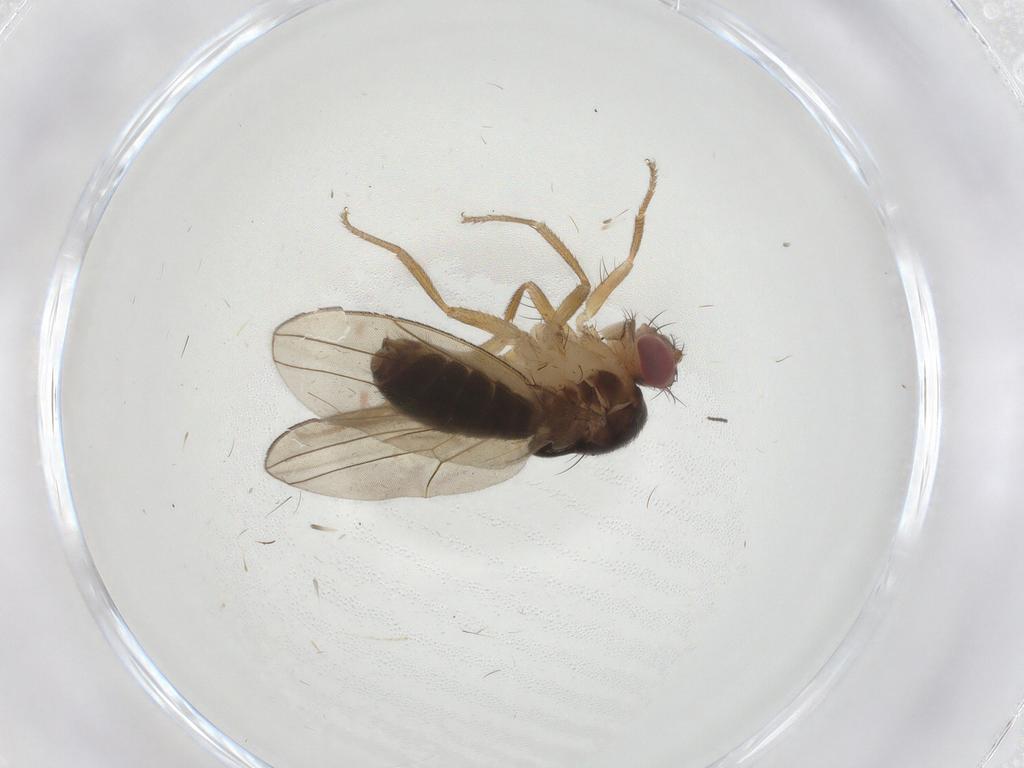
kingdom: Animalia
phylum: Arthropoda
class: Insecta
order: Diptera
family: Drosophilidae
